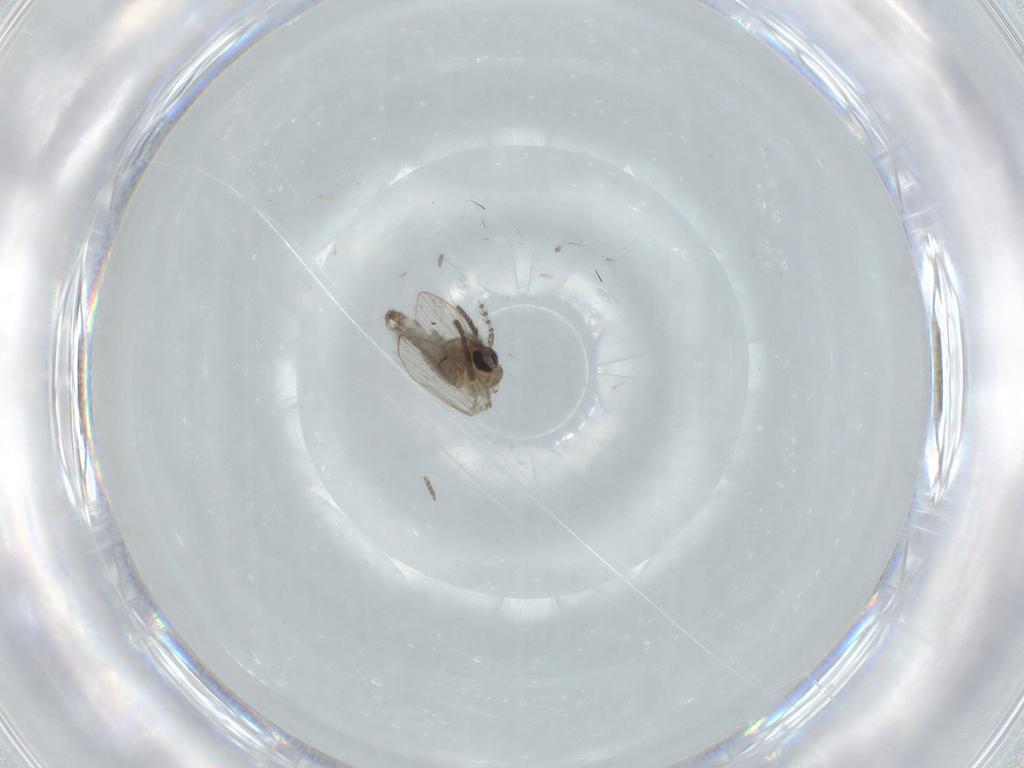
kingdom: Animalia
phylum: Arthropoda
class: Insecta
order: Diptera
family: Psychodidae
